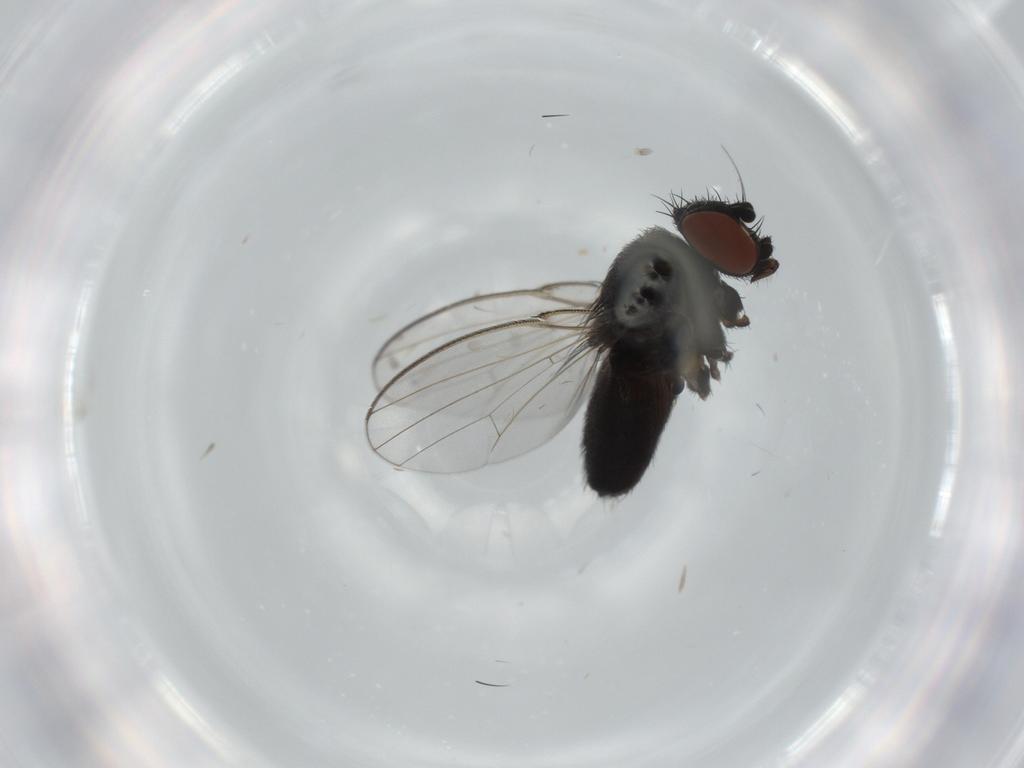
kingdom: Animalia
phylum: Arthropoda
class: Insecta
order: Diptera
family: Milichiidae
